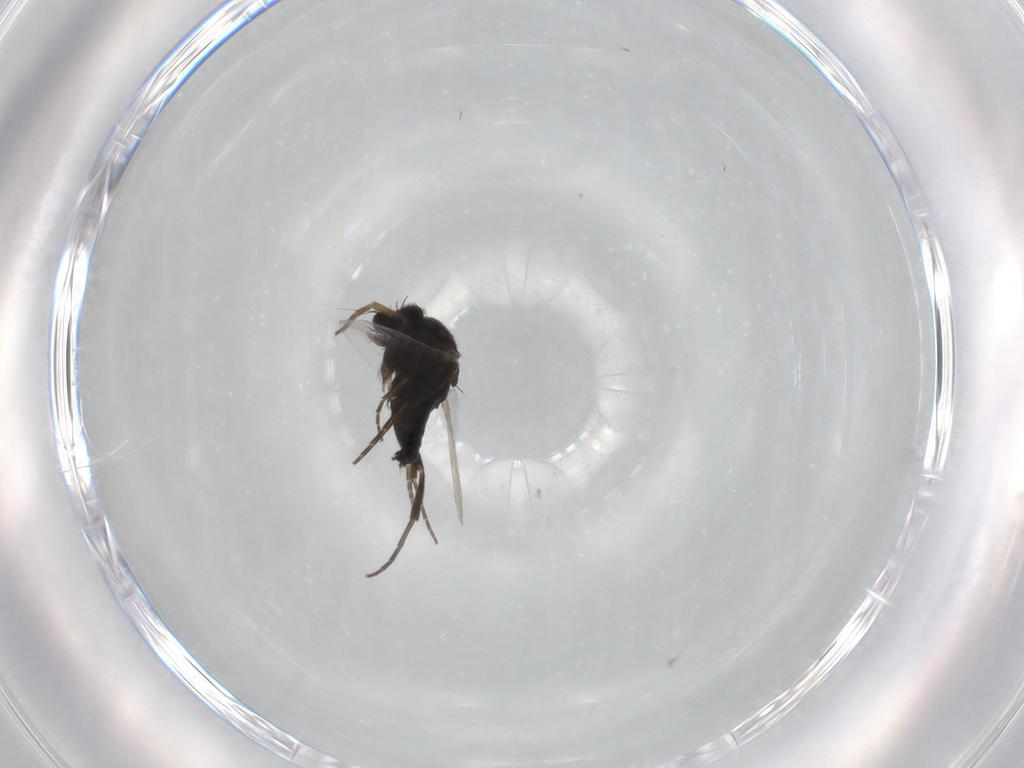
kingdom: Animalia
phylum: Arthropoda
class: Insecta
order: Diptera
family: Phoridae
